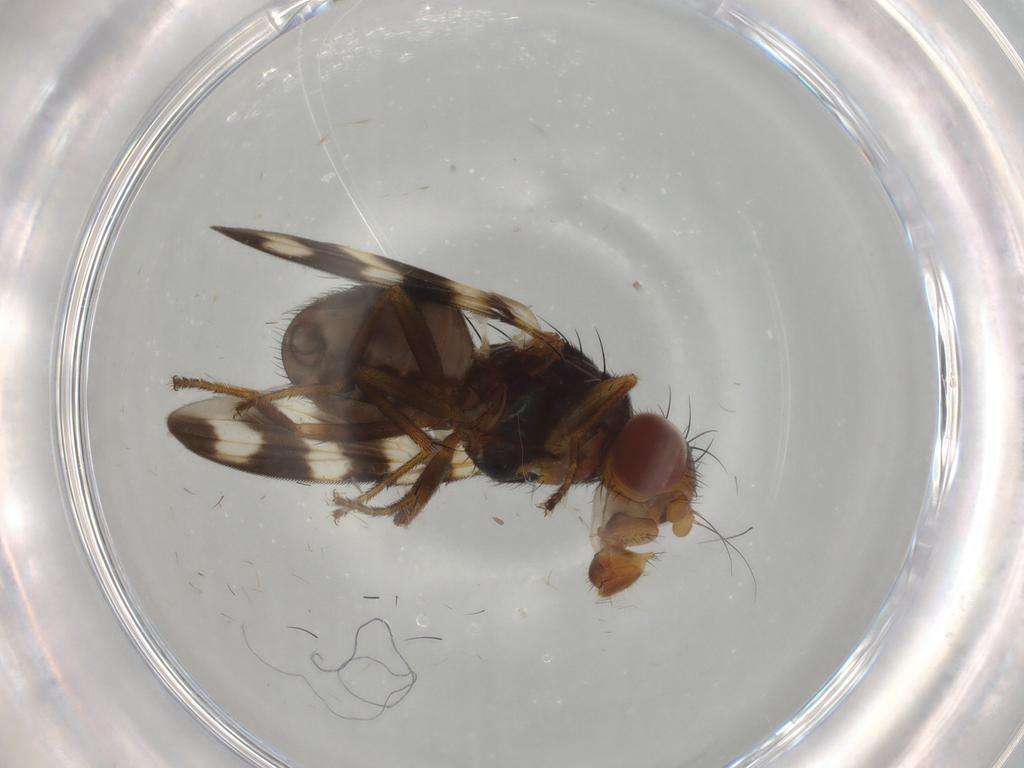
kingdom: Animalia
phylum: Arthropoda
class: Insecta
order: Diptera
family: Ulidiidae
